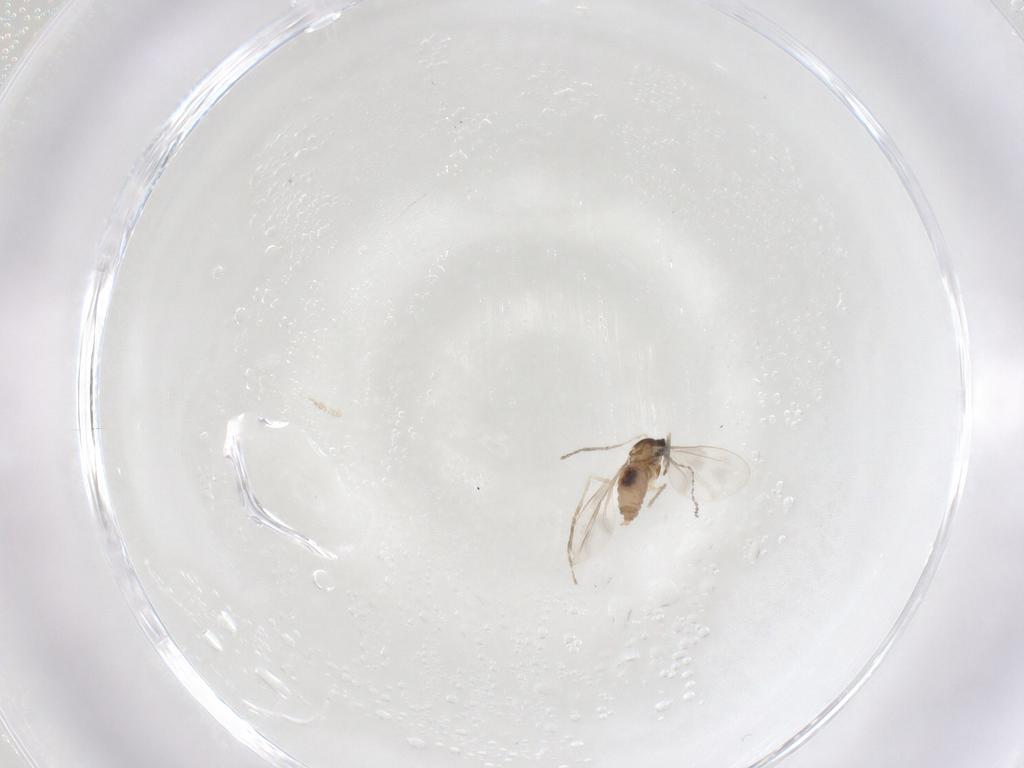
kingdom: Animalia
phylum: Arthropoda
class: Insecta
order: Diptera
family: Cecidomyiidae
